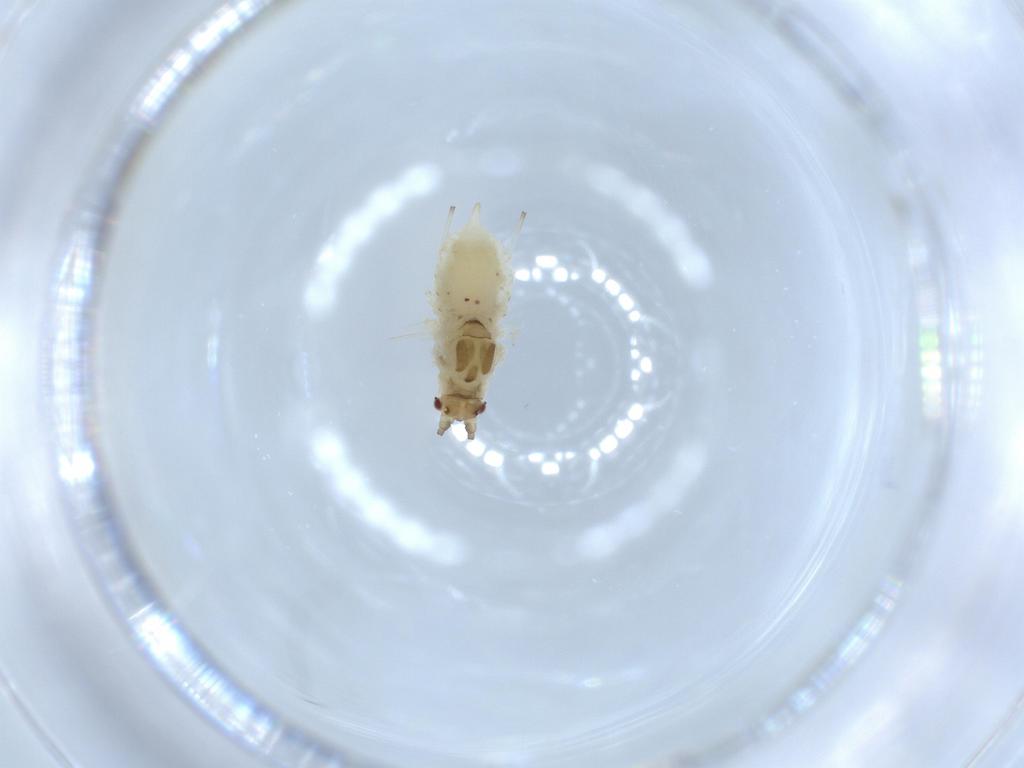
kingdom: Animalia
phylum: Arthropoda
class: Insecta
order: Hemiptera
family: Aphididae
